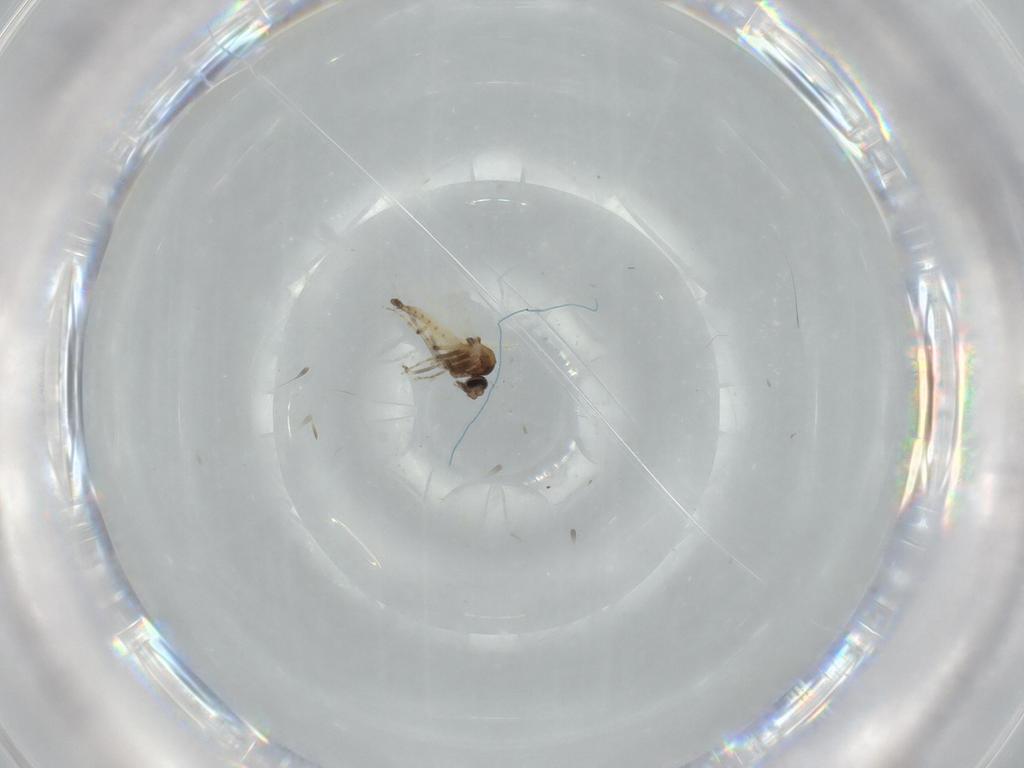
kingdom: Animalia
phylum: Arthropoda
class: Insecta
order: Diptera
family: Ceratopogonidae
